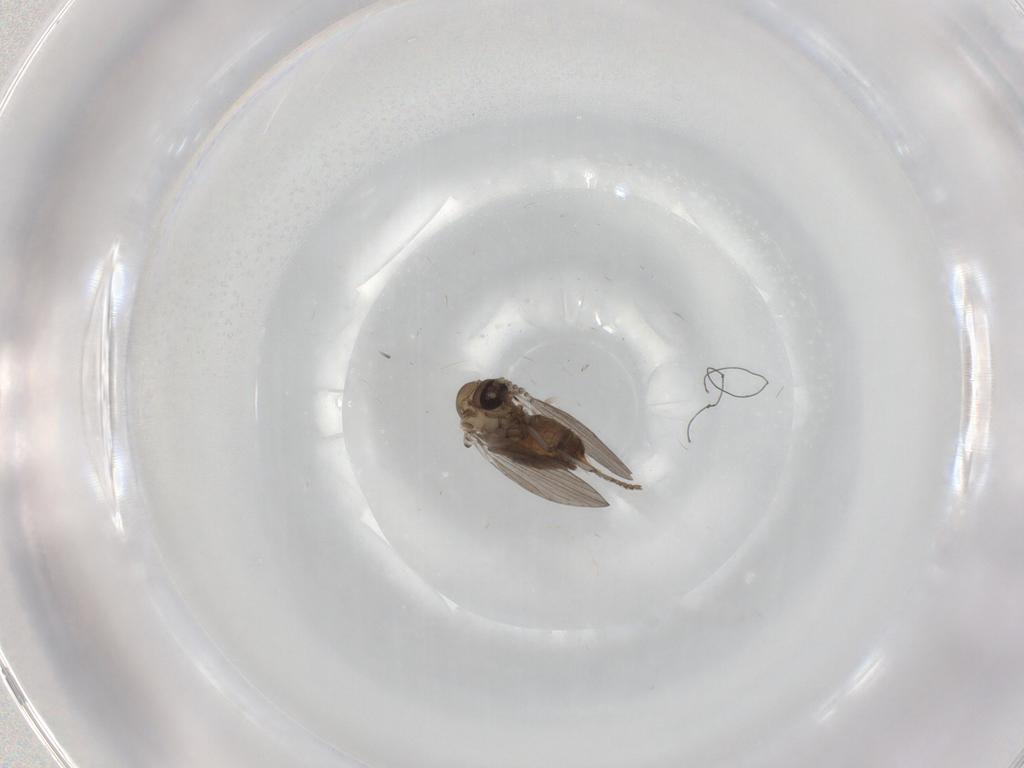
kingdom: Animalia
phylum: Arthropoda
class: Insecta
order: Diptera
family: Psychodidae
